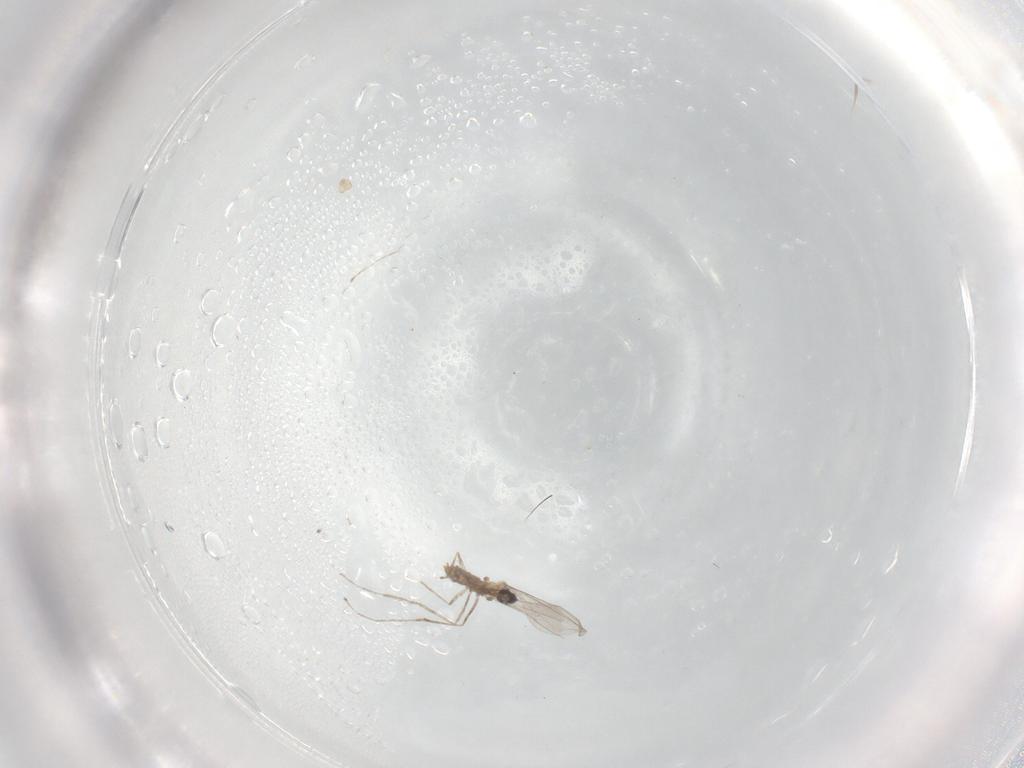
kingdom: Animalia
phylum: Arthropoda
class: Insecta
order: Diptera
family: Cecidomyiidae
